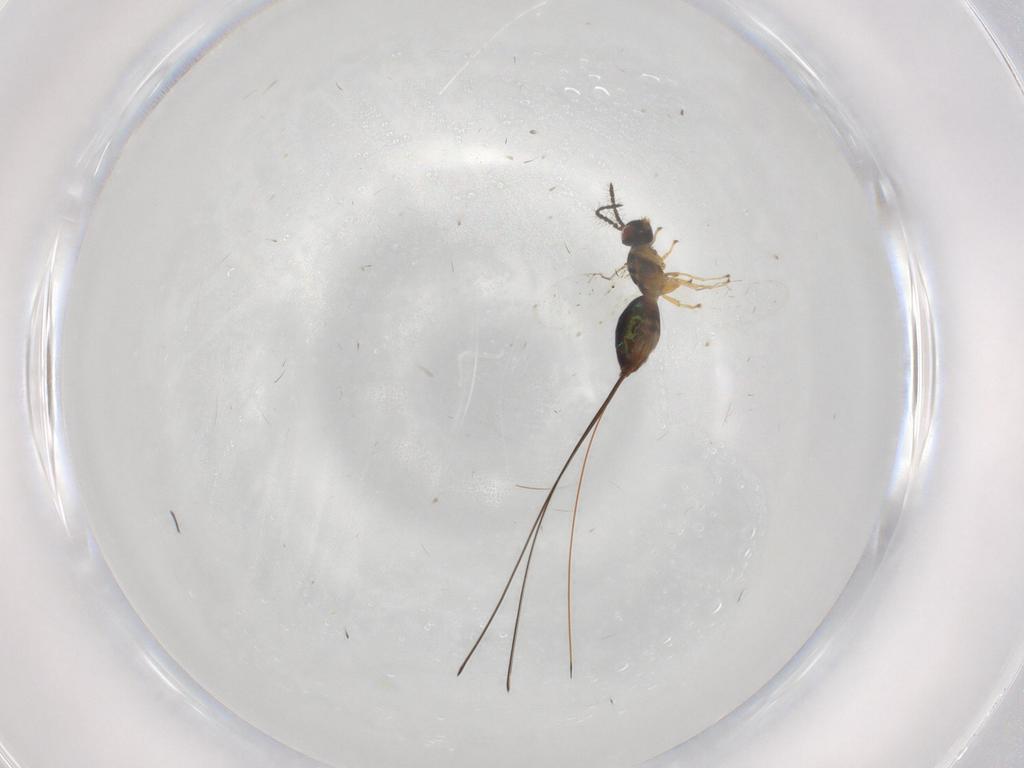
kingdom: Animalia
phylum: Arthropoda
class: Insecta
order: Hymenoptera
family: Pteromalidae
